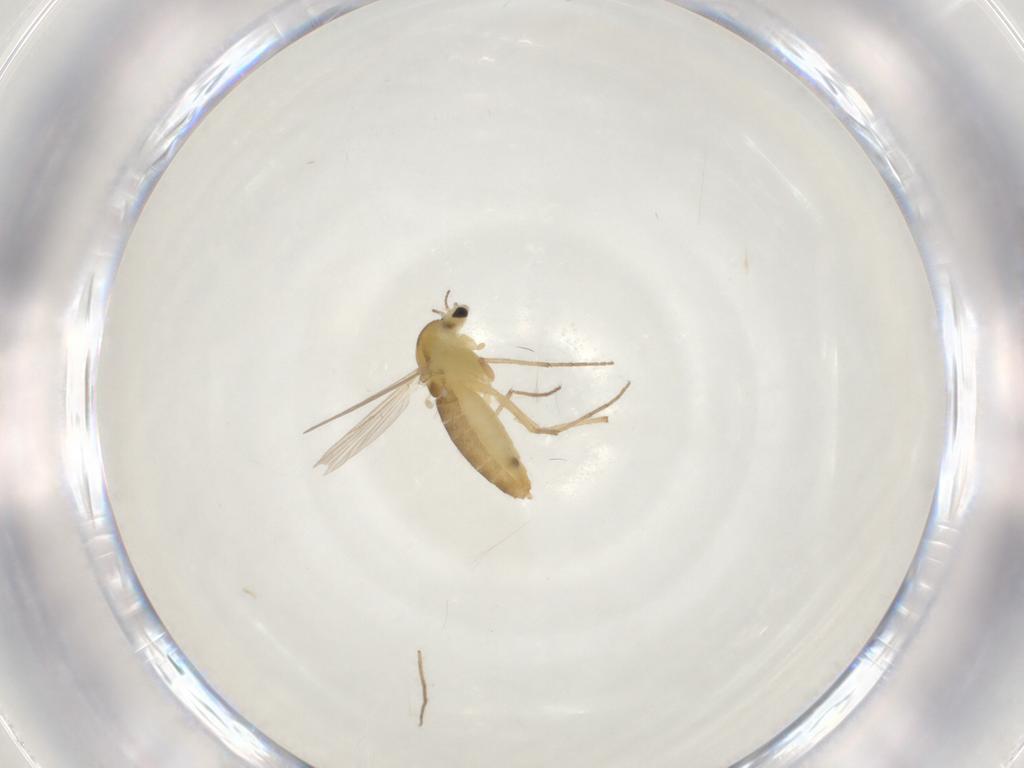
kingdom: Animalia
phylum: Arthropoda
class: Insecta
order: Diptera
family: Chironomidae
